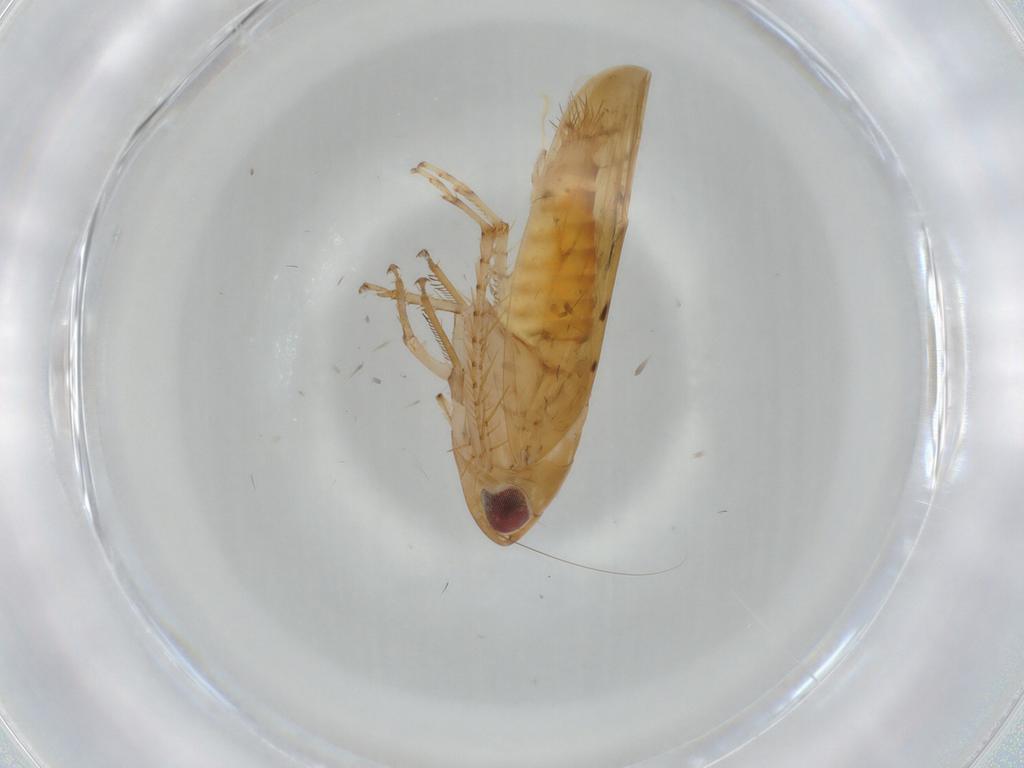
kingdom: Animalia
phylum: Arthropoda
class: Insecta
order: Hemiptera
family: Cicadellidae
